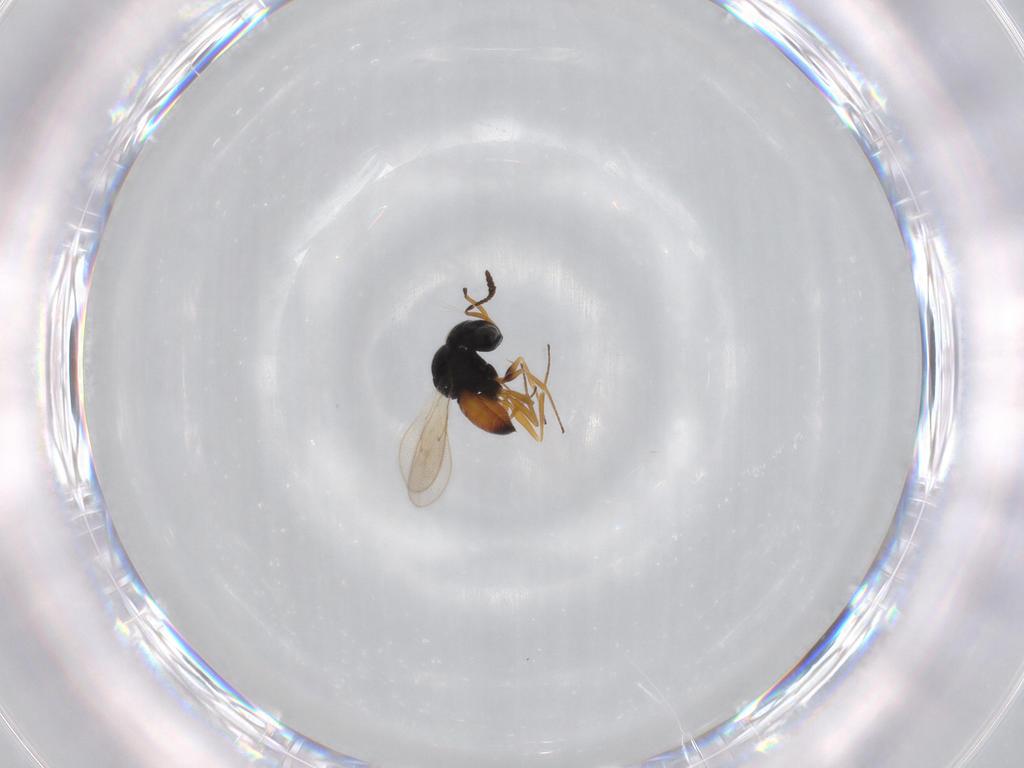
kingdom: Animalia
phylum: Arthropoda
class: Insecta
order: Hymenoptera
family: Scelionidae
